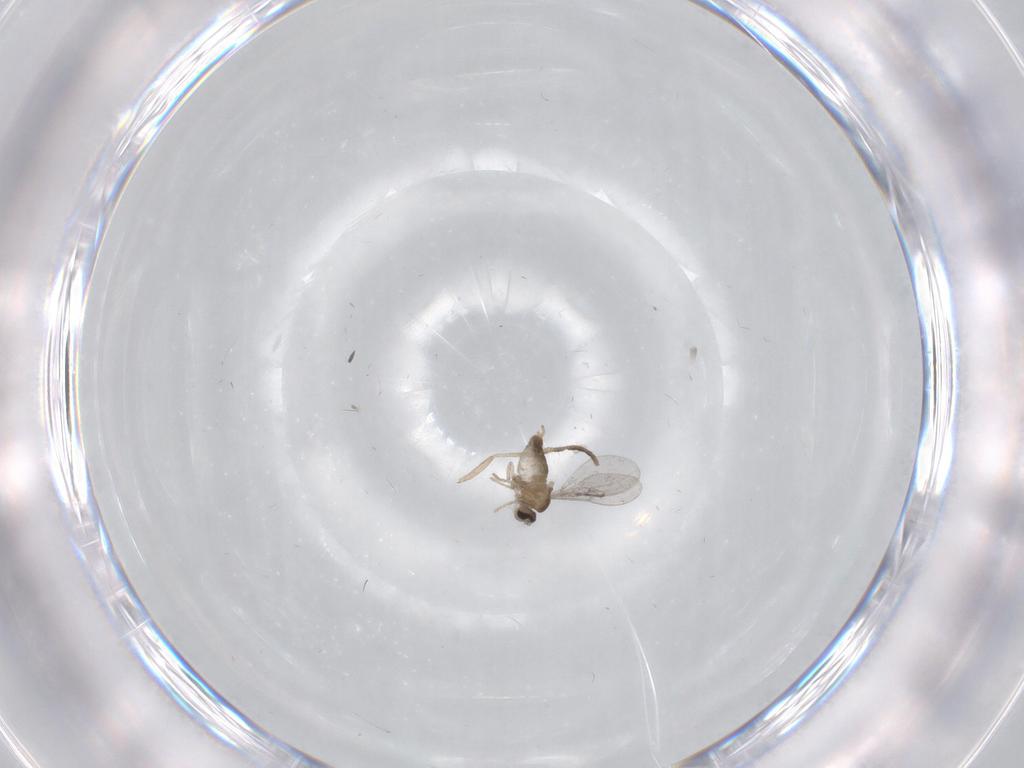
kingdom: Animalia
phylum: Arthropoda
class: Insecta
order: Diptera
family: Cecidomyiidae
